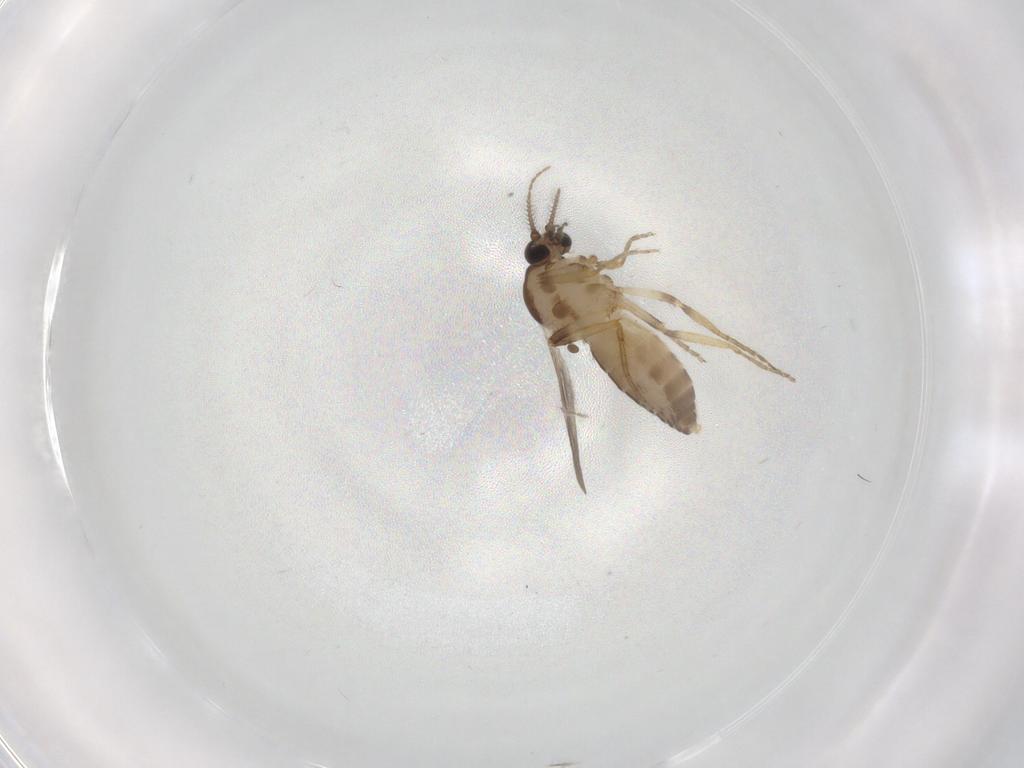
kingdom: Animalia
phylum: Arthropoda
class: Insecta
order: Diptera
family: Ceratopogonidae
